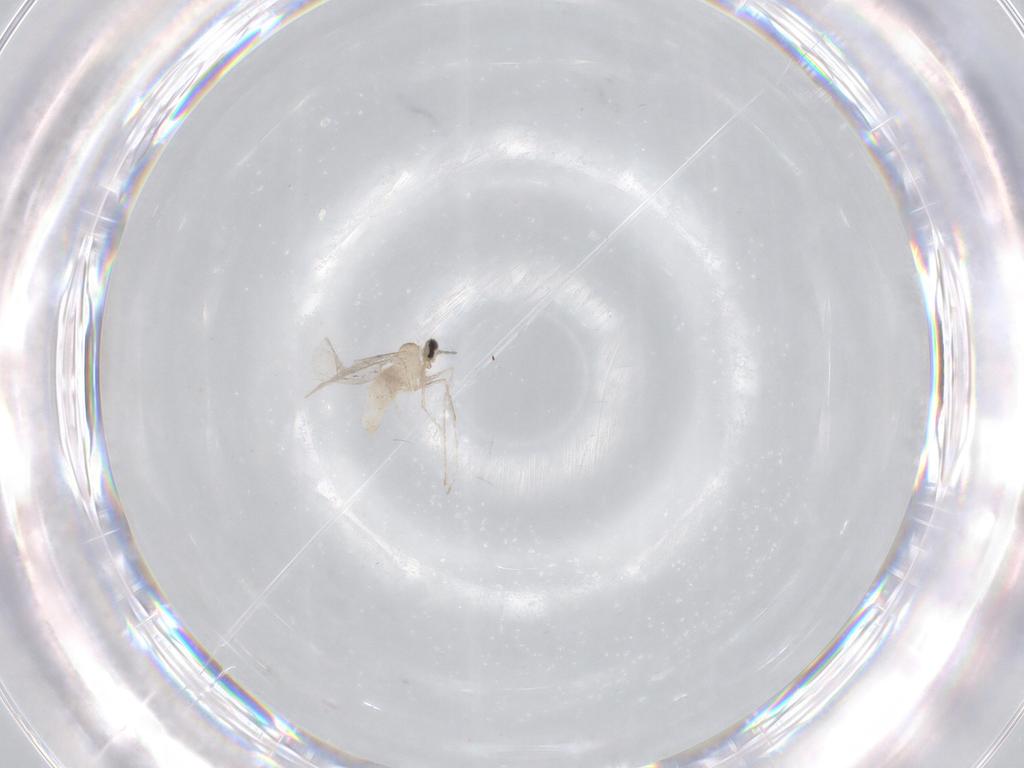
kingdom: Animalia
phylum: Arthropoda
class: Insecta
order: Diptera
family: Cecidomyiidae
